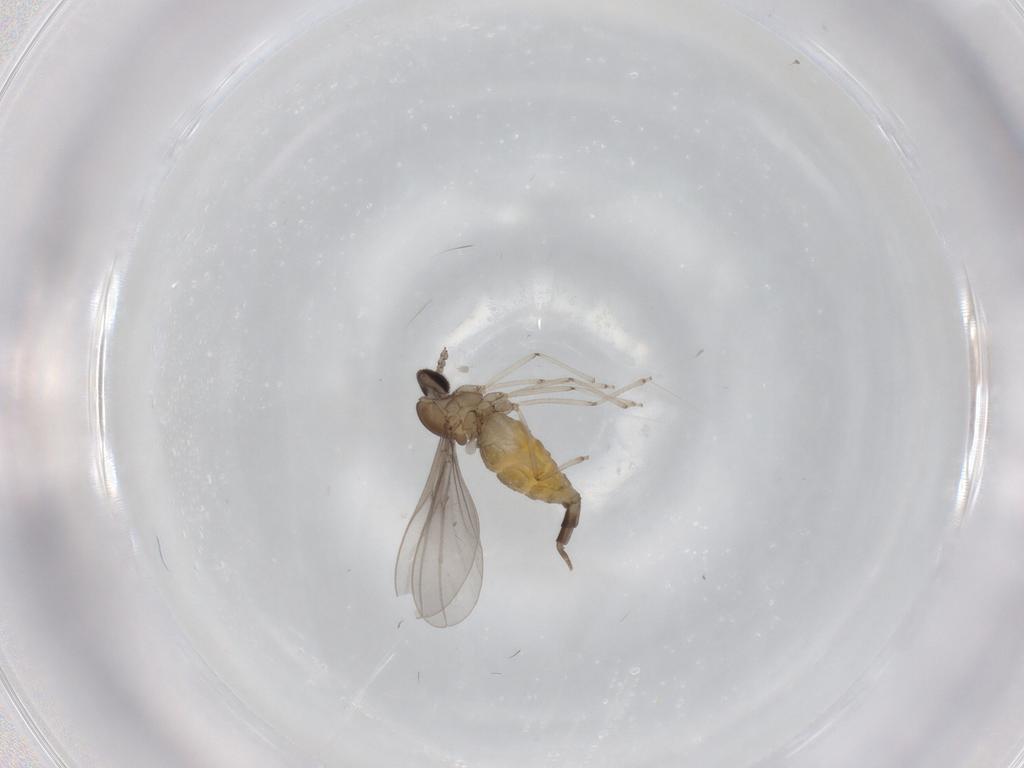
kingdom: Animalia
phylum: Arthropoda
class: Insecta
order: Diptera
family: Cecidomyiidae
